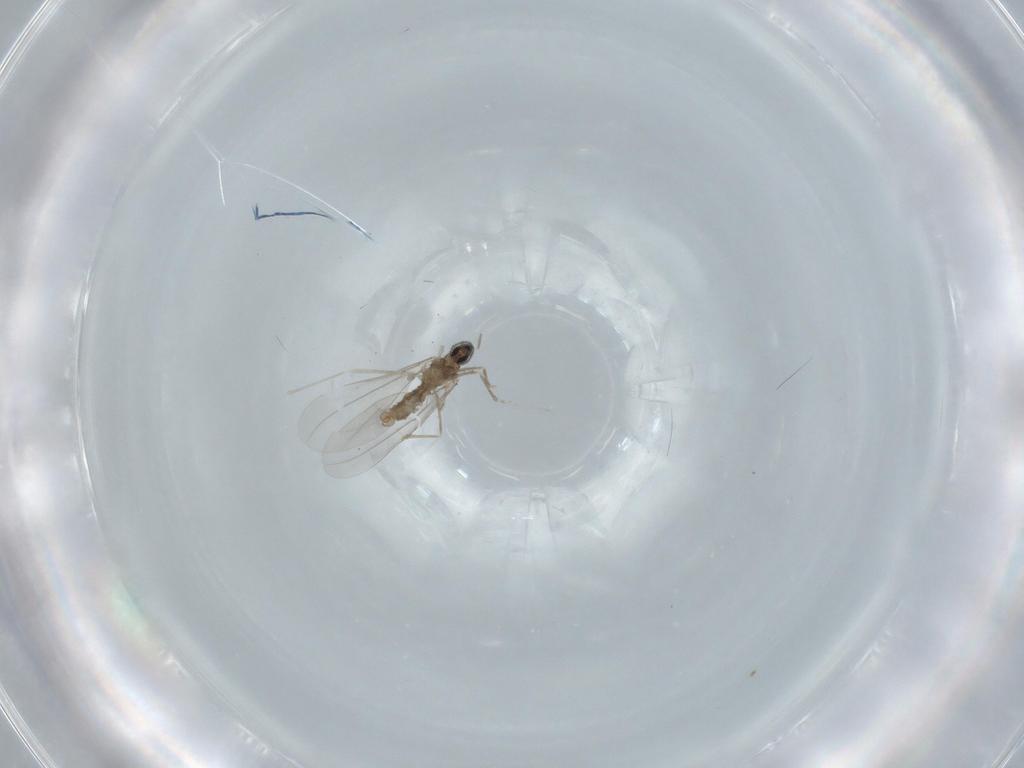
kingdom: Animalia
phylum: Arthropoda
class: Insecta
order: Diptera
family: Cecidomyiidae
